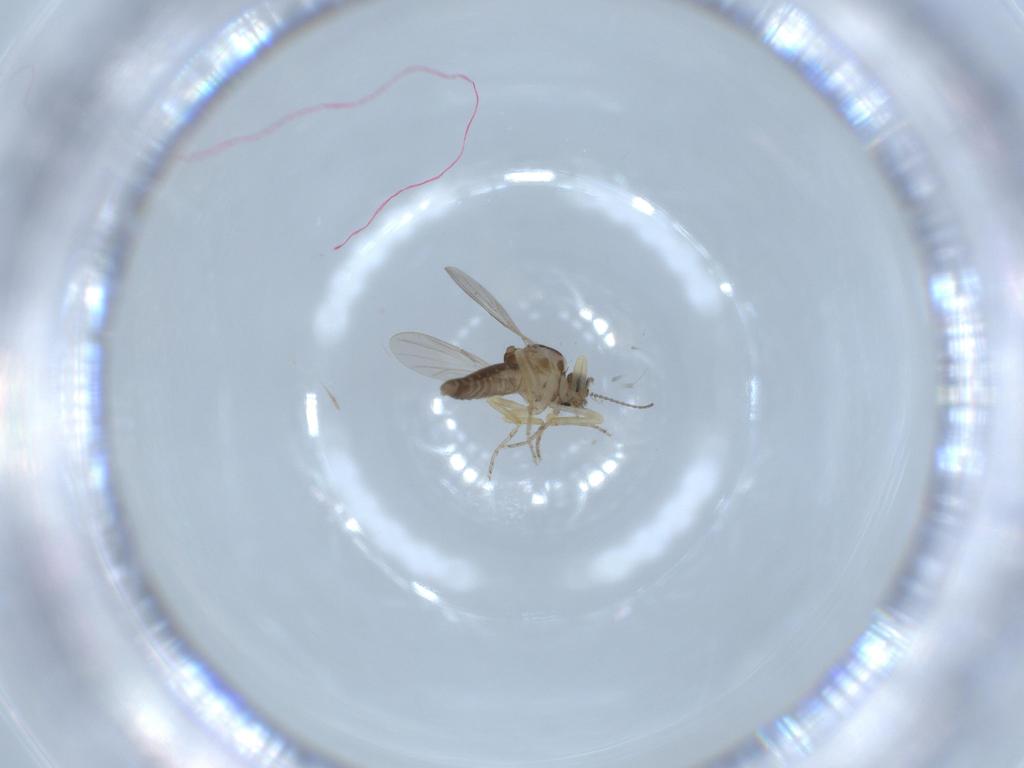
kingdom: Animalia
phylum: Arthropoda
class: Insecta
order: Diptera
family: Ceratopogonidae
